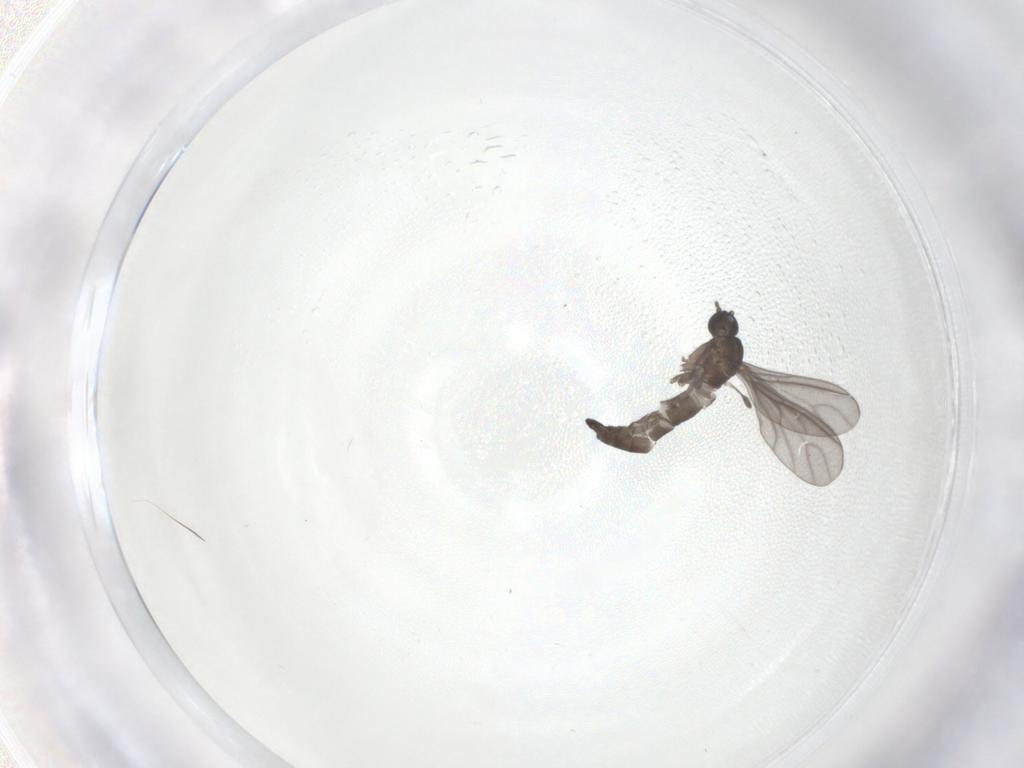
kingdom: Animalia
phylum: Arthropoda
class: Insecta
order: Diptera
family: Sciaridae
